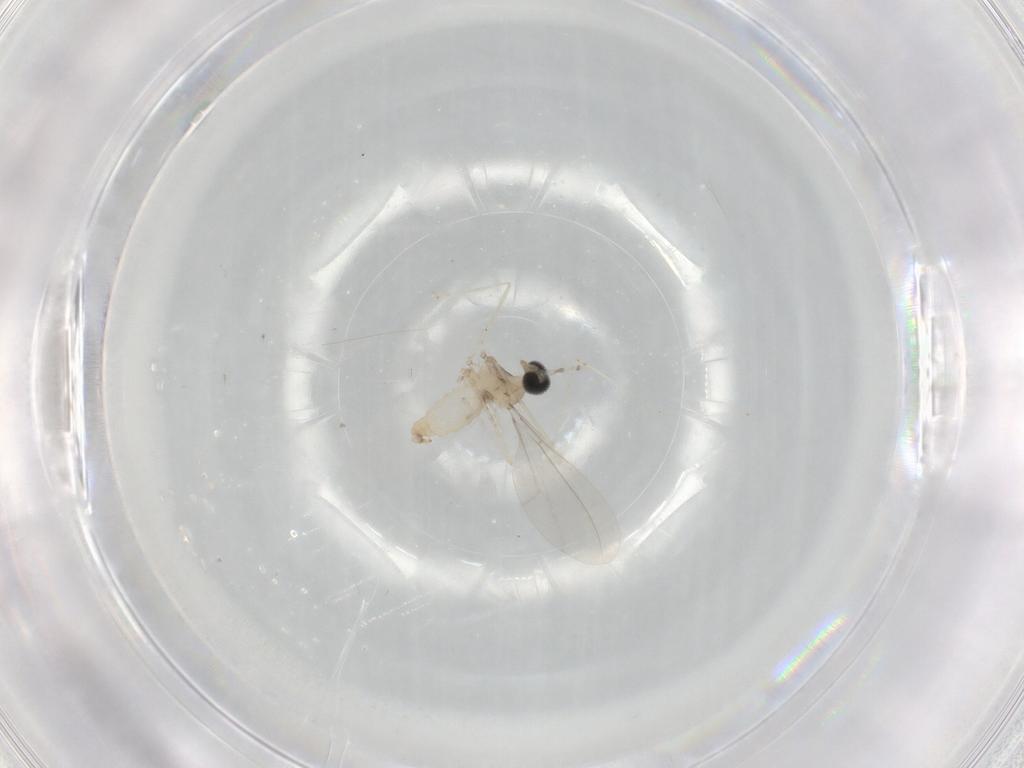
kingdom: Animalia
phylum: Arthropoda
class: Insecta
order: Diptera
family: Cecidomyiidae
